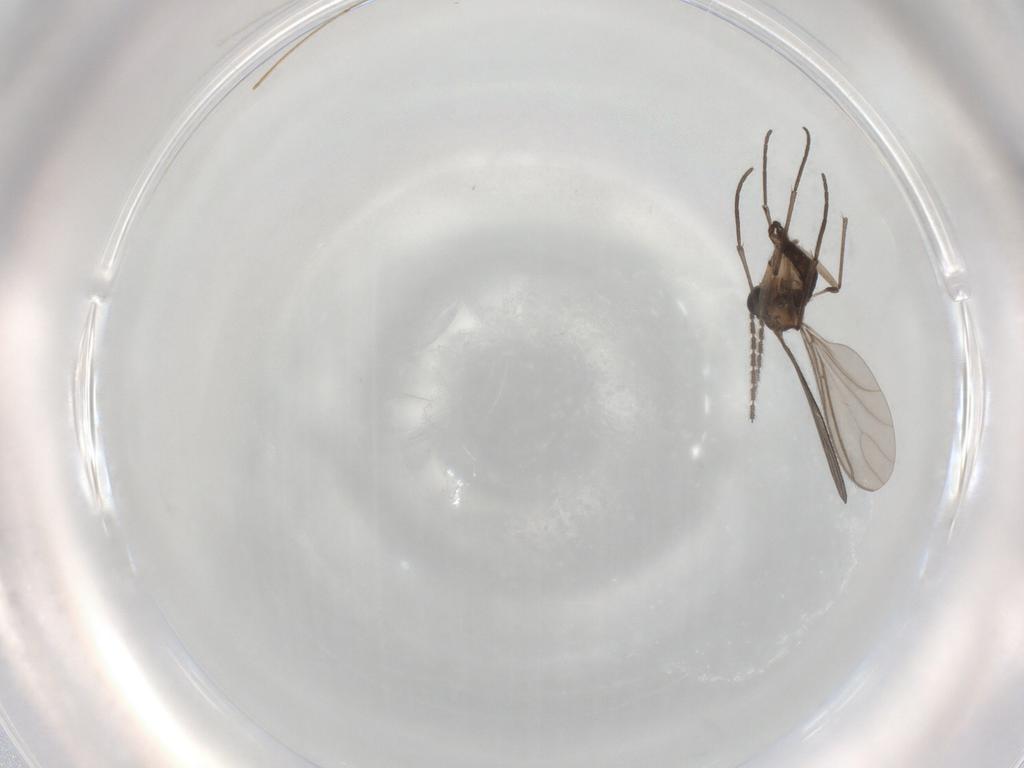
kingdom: Animalia
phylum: Arthropoda
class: Insecta
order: Diptera
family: Sciaridae
